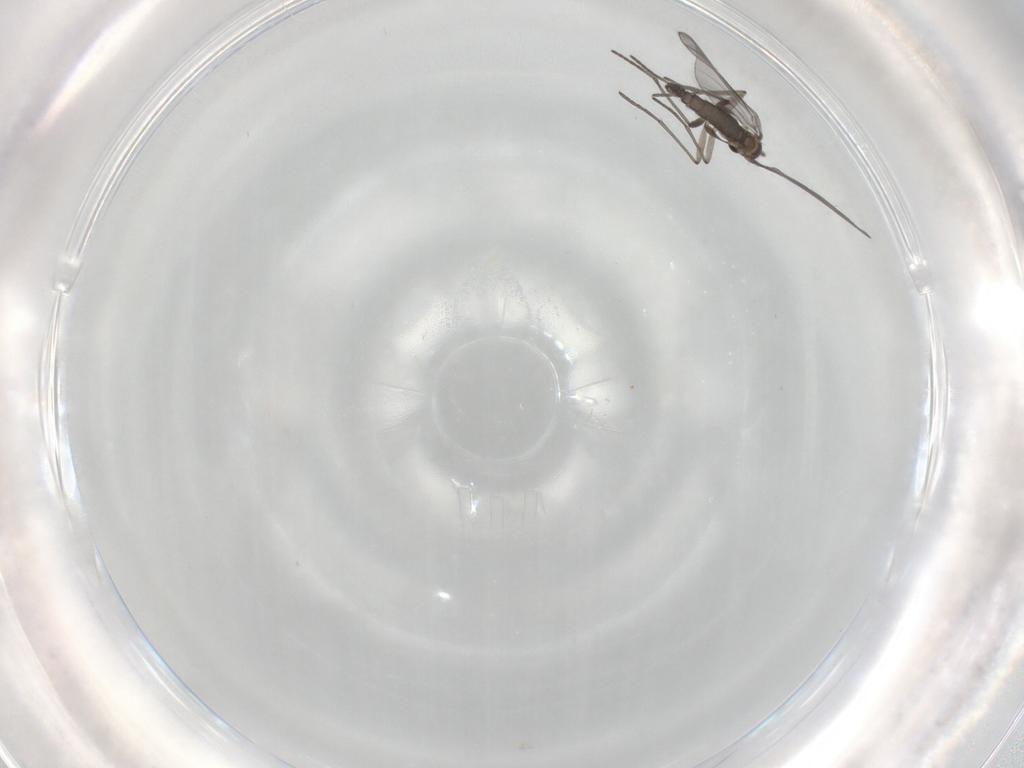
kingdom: Animalia
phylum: Arthropoda
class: Insecta
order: Diptera
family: Sciaridae
